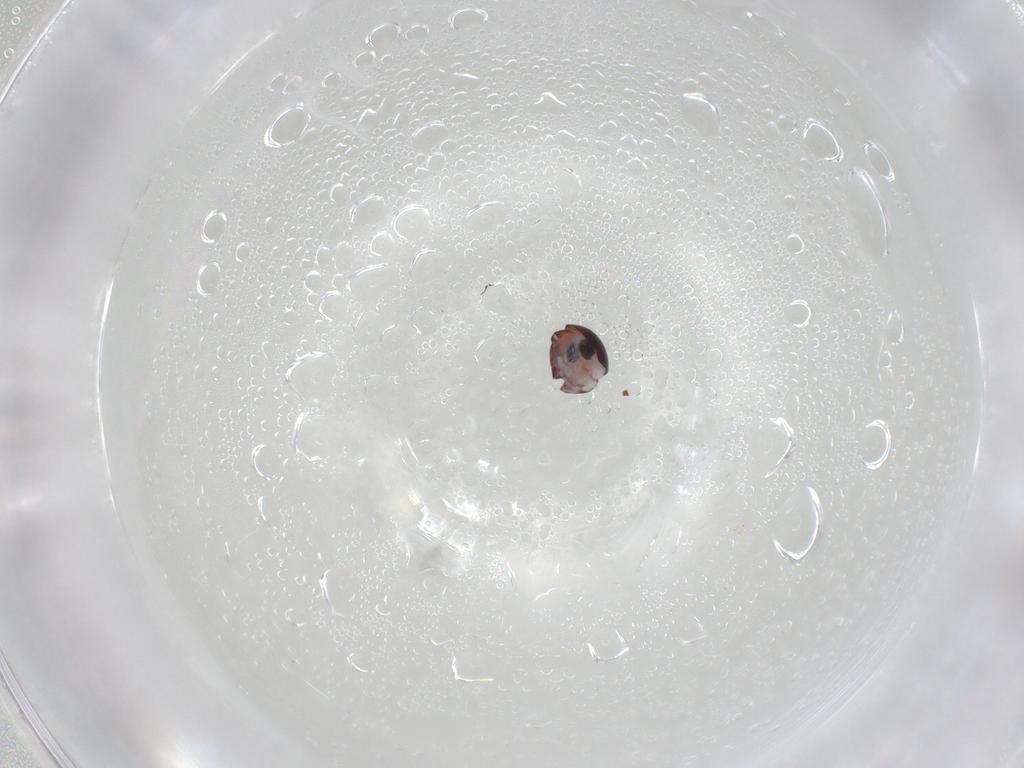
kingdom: Animalia
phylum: Arthropoda
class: Arachnida
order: Sarcoptiformes
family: Galumnidae
